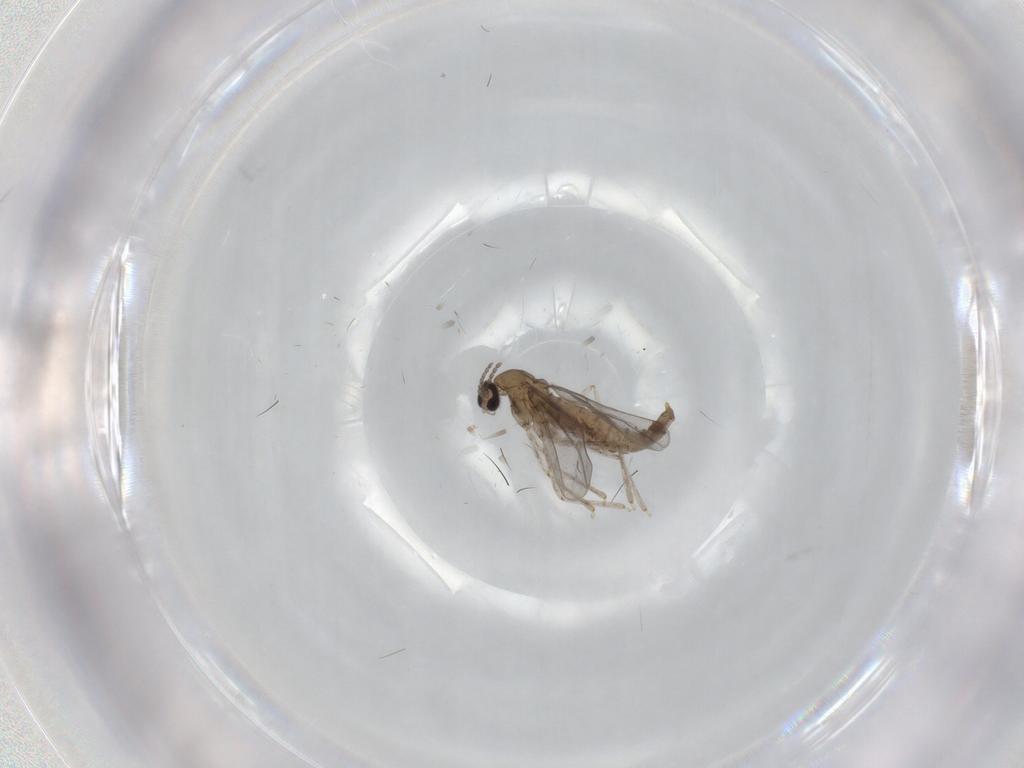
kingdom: Animalia
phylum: Arthropoda
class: Insecta
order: Diptera
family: Cecidomyiidae
